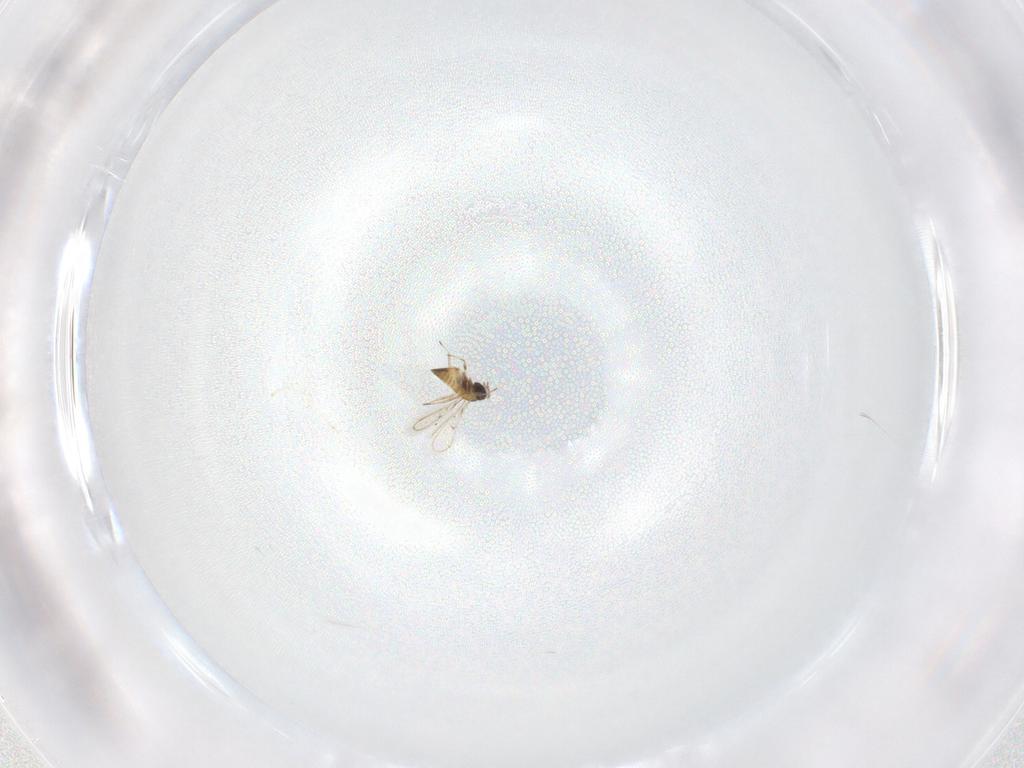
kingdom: Animalia
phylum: Arthropoda
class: Insecta
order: Hymenoptera
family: Trichogrammatidae
